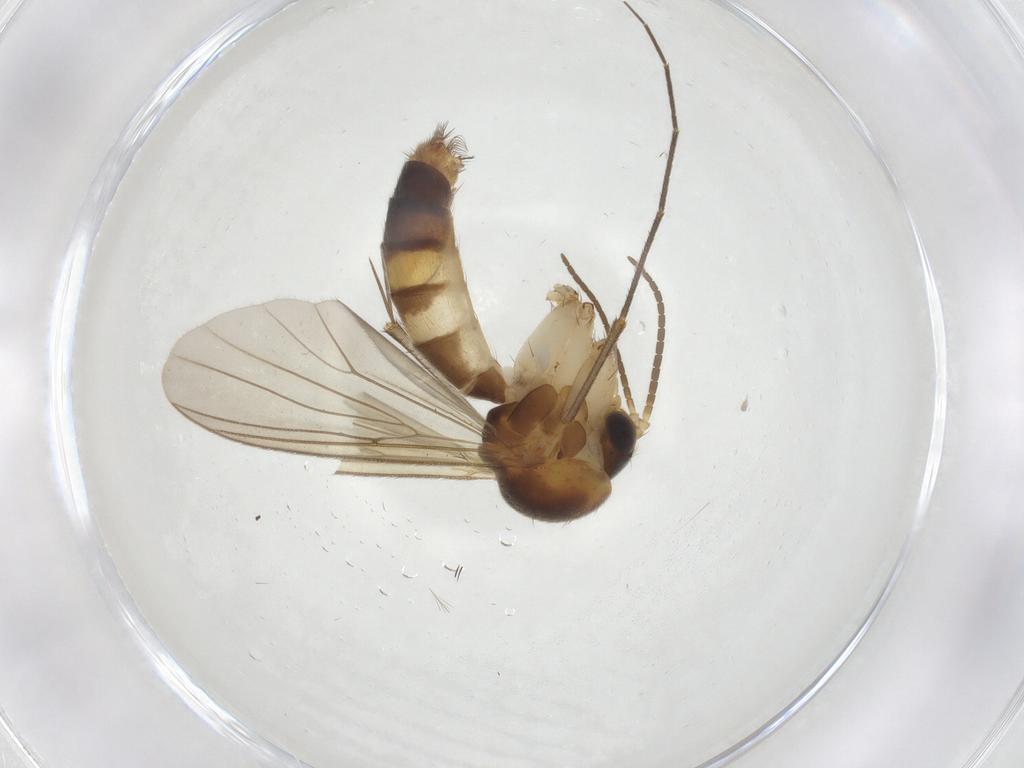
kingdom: Animalia
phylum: Arthropoda
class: Insecta
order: Diptera
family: Mycetophilidae
